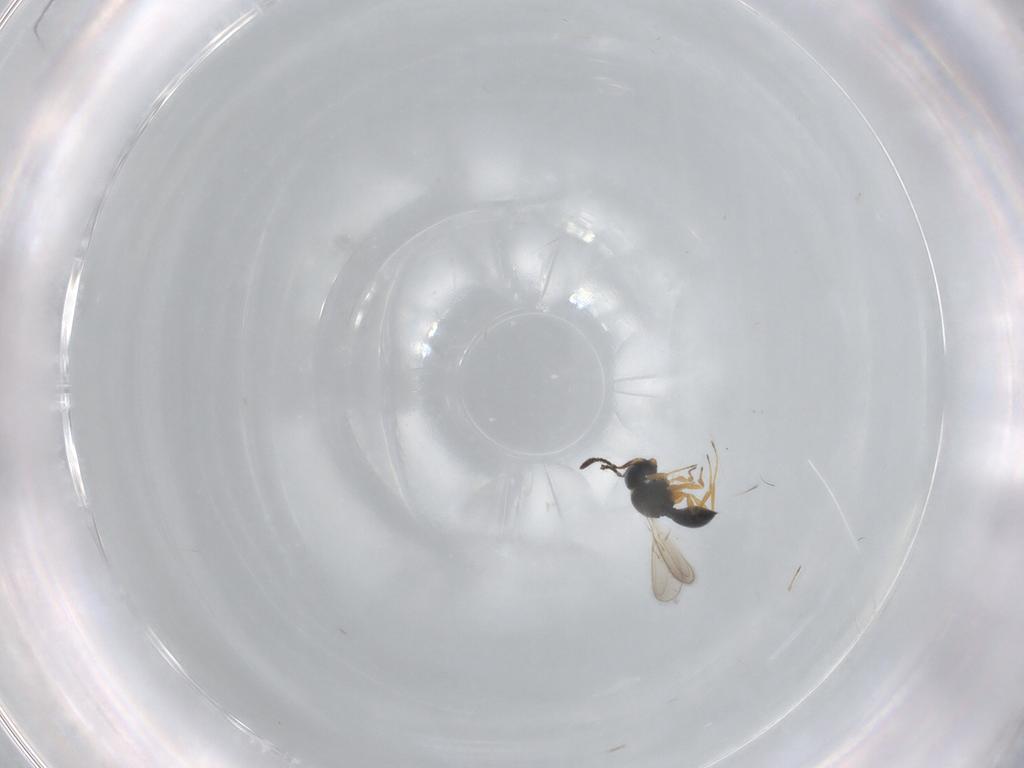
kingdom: Animalia
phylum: Arthropoda
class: Insecta
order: Hymenoptera
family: Scelionidae
